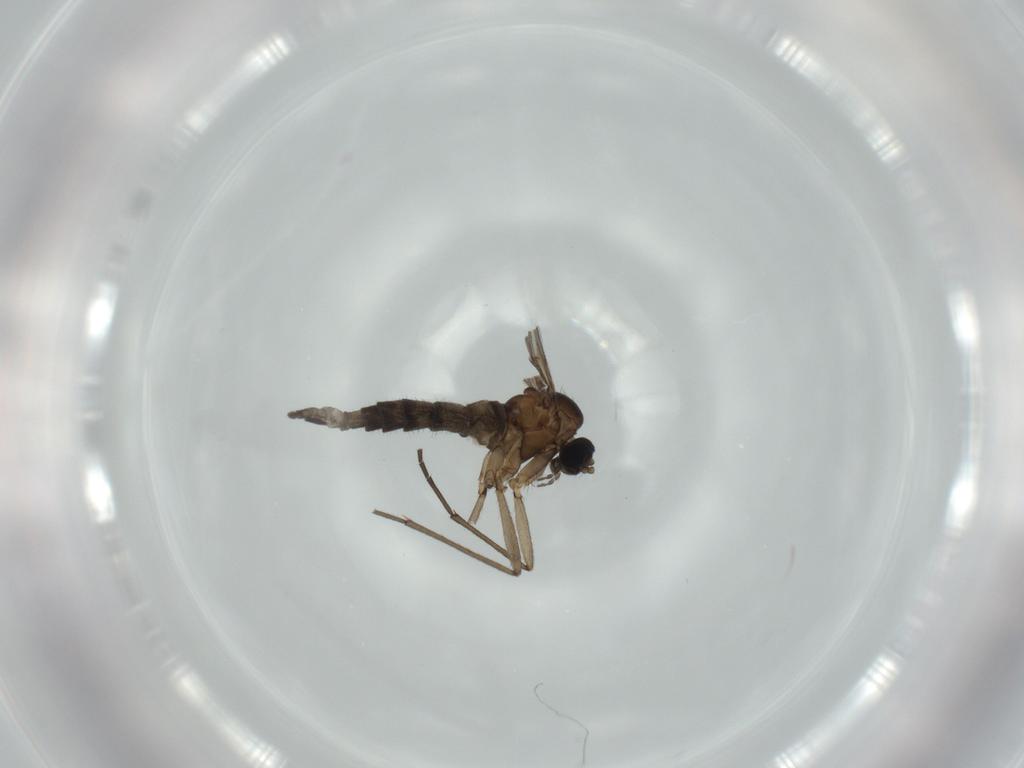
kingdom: Animalia
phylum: Arthropoda
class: Insecta
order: Diptera
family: Sciaridae
